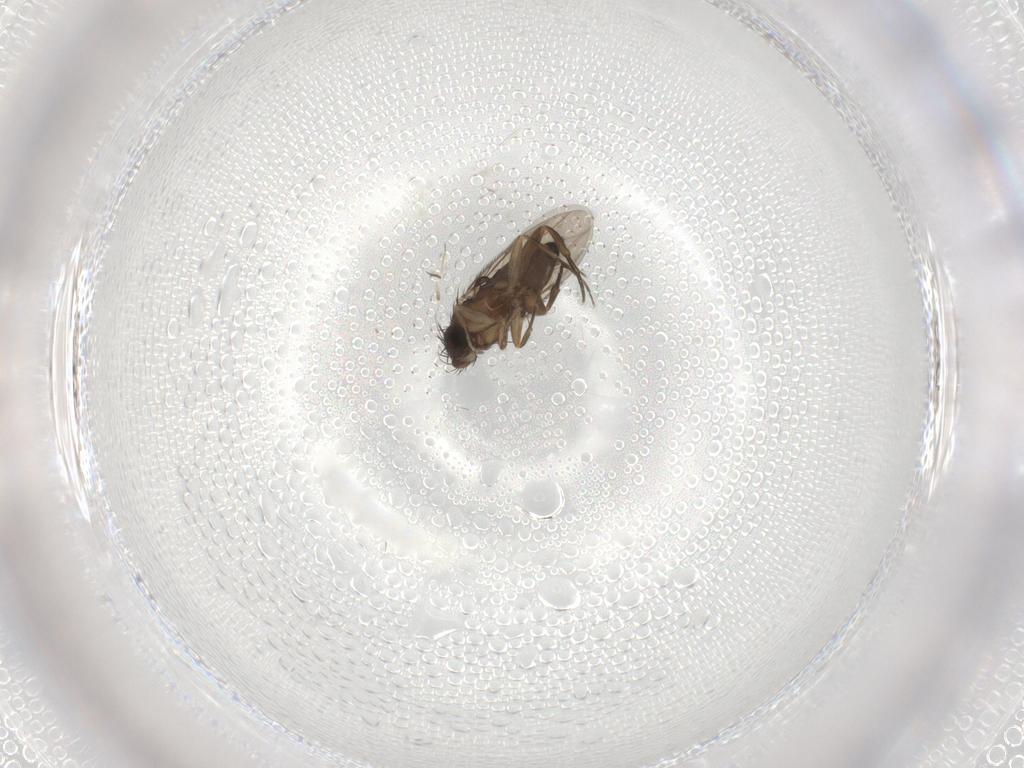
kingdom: Animalia
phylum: Arthropoda
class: Insecta
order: Diptera
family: Phoridae
